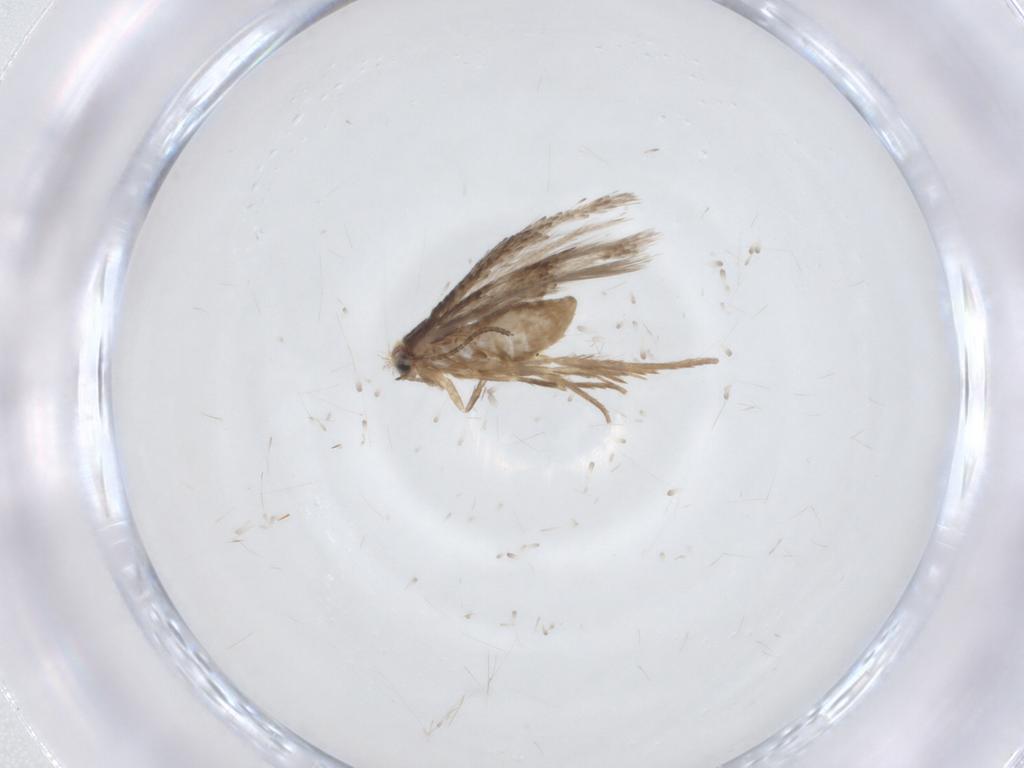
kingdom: Animalia
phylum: Arthropoda
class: Insecta
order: Lepidoptera
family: Nepticulidae
